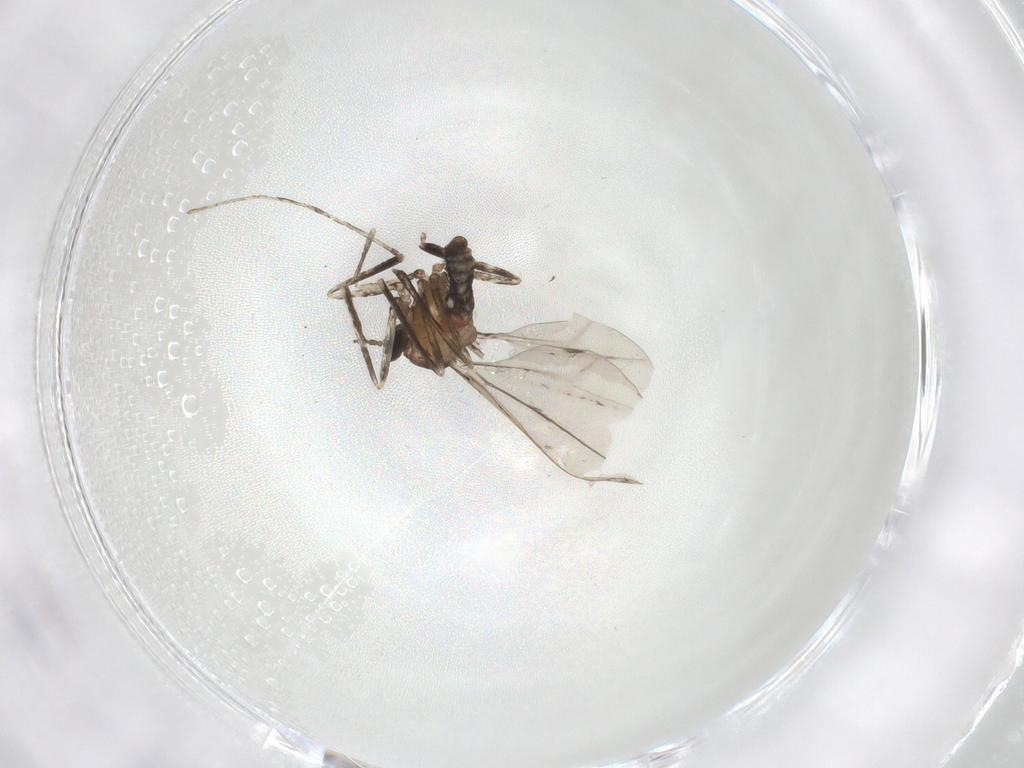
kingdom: Animalia
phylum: Arthropoda
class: Insecta
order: Diptera
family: Cecidomyiidae
